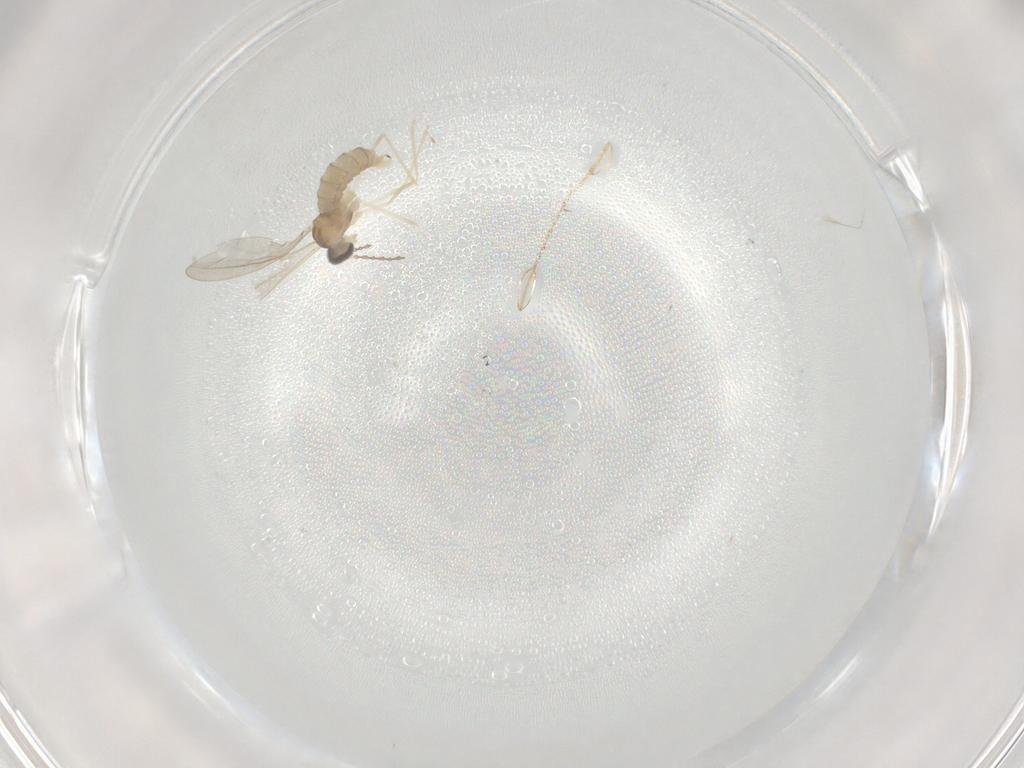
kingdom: Animalia
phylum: Arthropoda
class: Insecta
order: Diptera
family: Cecidomyiidae
